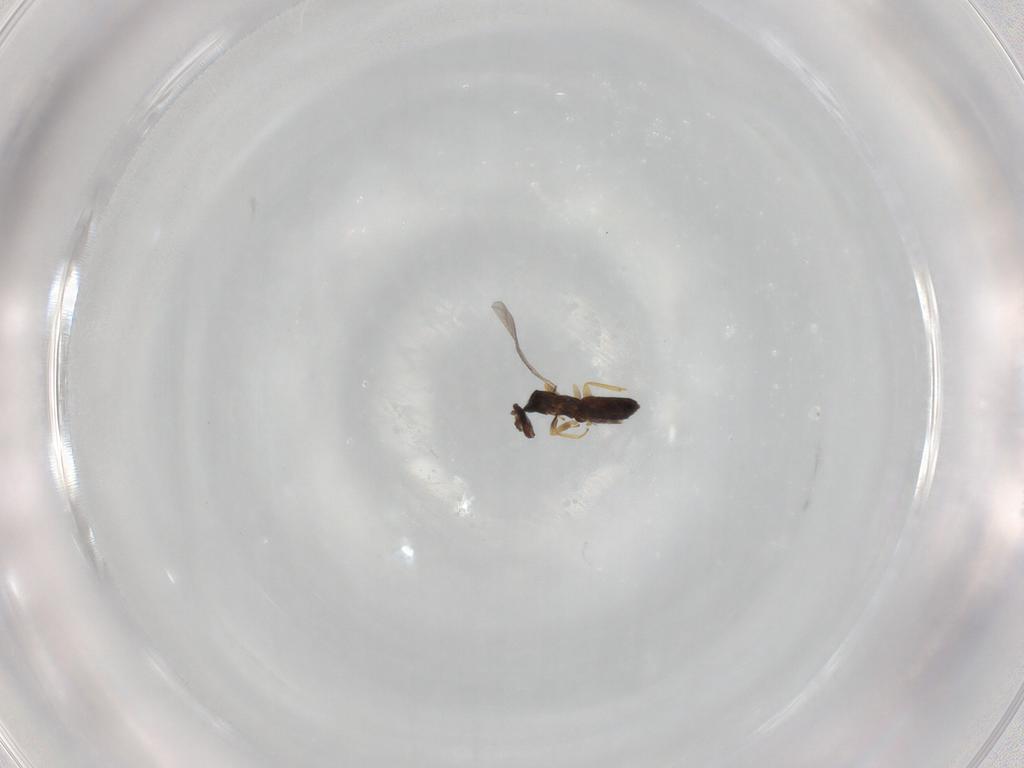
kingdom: Animalia
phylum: Arthropoda
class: Insecta
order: Hymenoptera
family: Eulophidae
